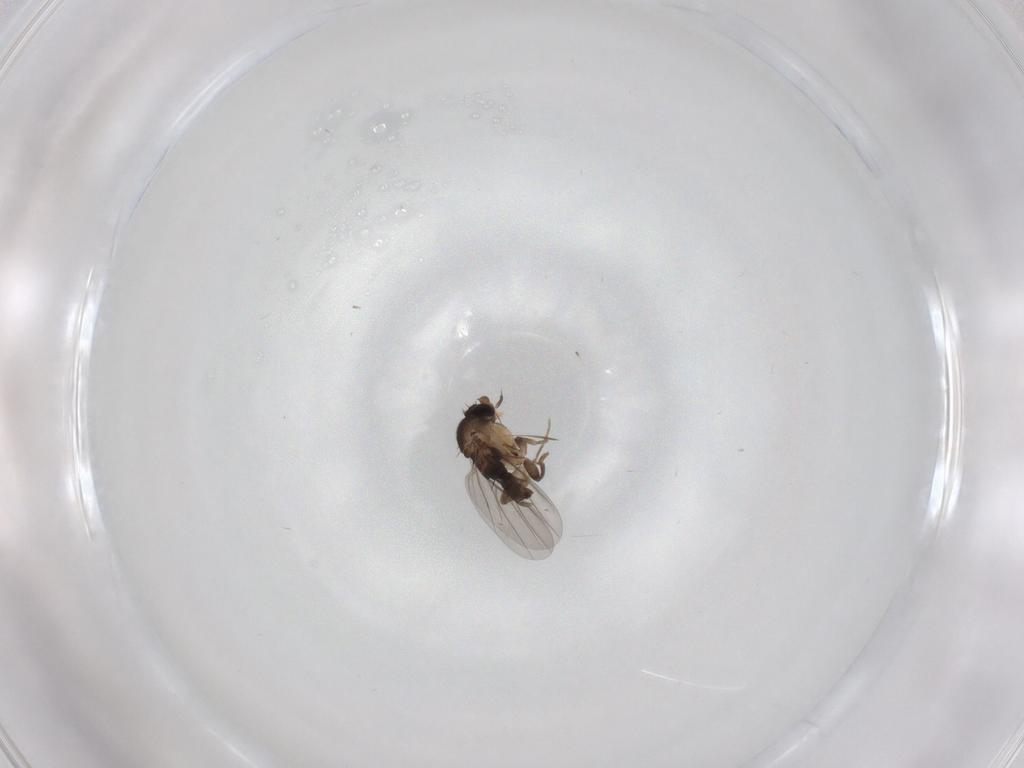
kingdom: Animalia
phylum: Arthropoda
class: Insecta
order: Diptera
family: Phoridae
